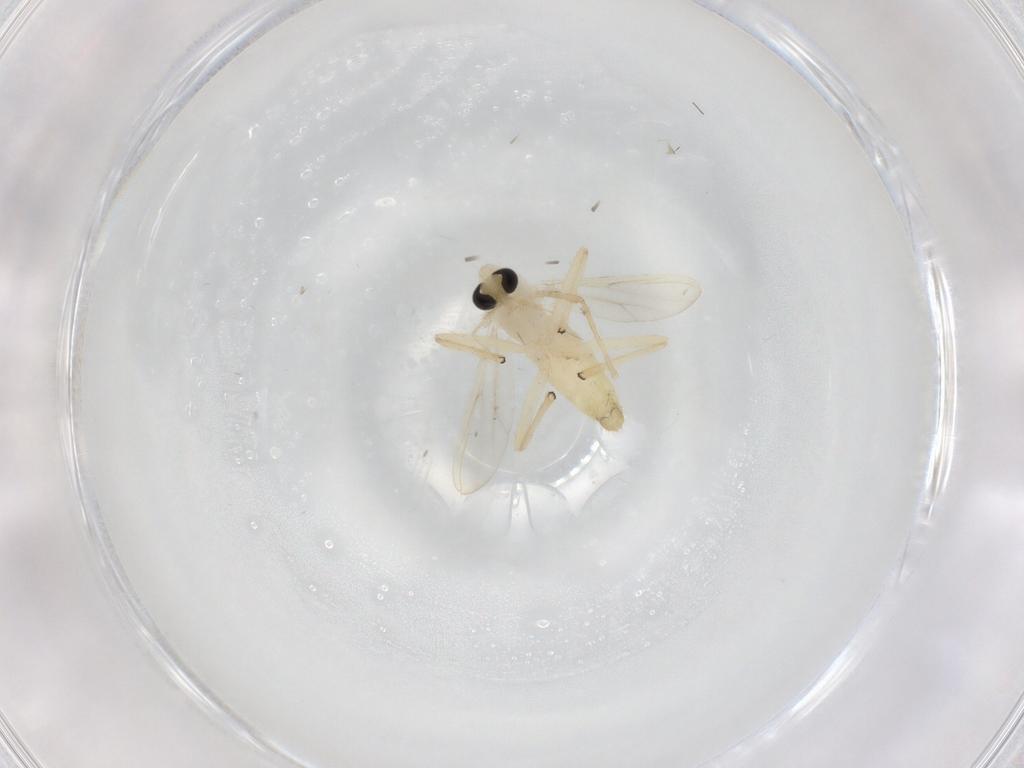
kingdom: Animalia
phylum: Arthropoda
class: Insecta
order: Diptera
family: Chironomidae
